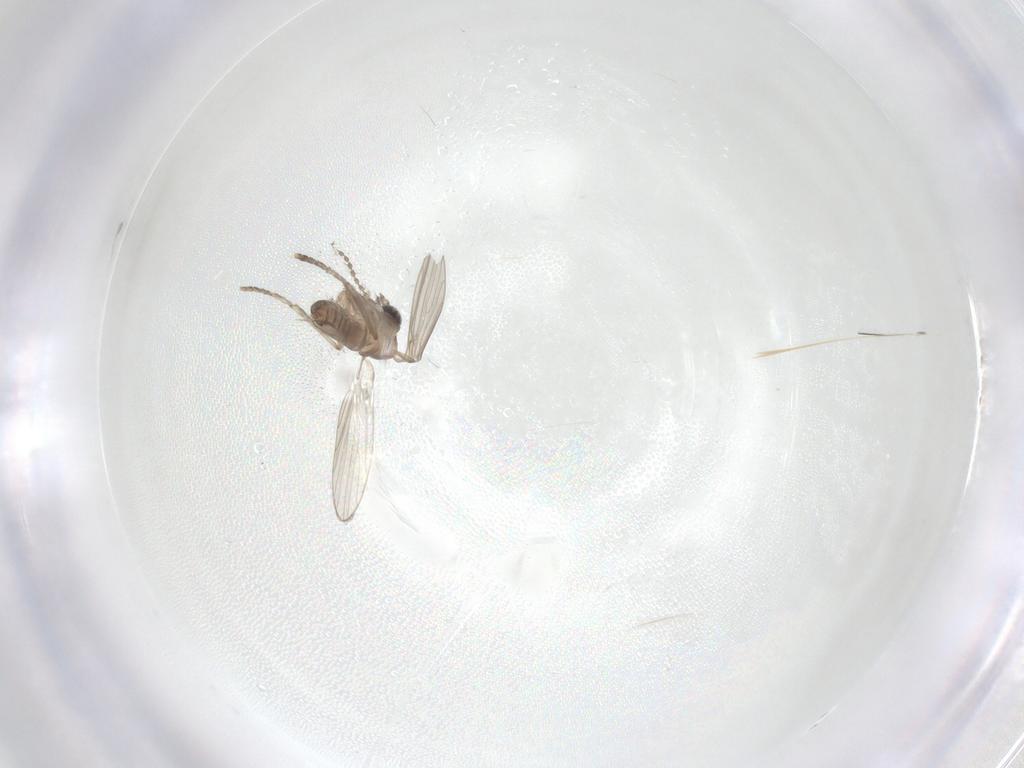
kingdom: Animalia
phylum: Arthropoda
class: Insecta
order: Diptera
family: Psychodidae
